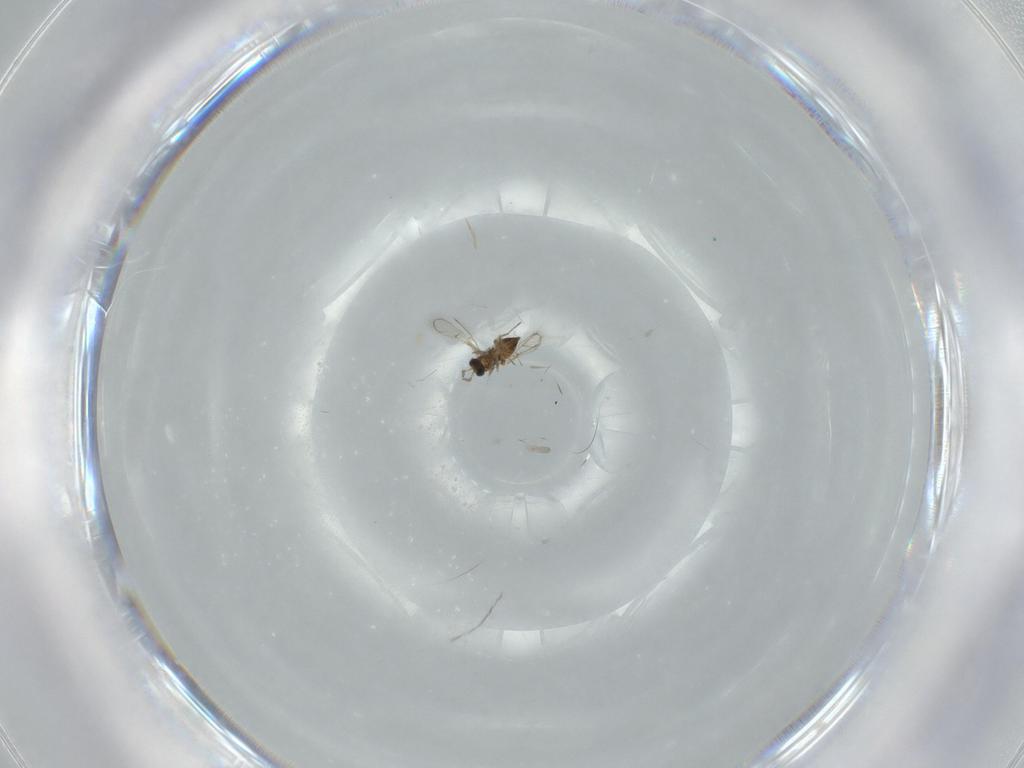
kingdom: Animalia
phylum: Arthropoda
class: Insecta
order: Hymenoptera
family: Trichogrammatidae
